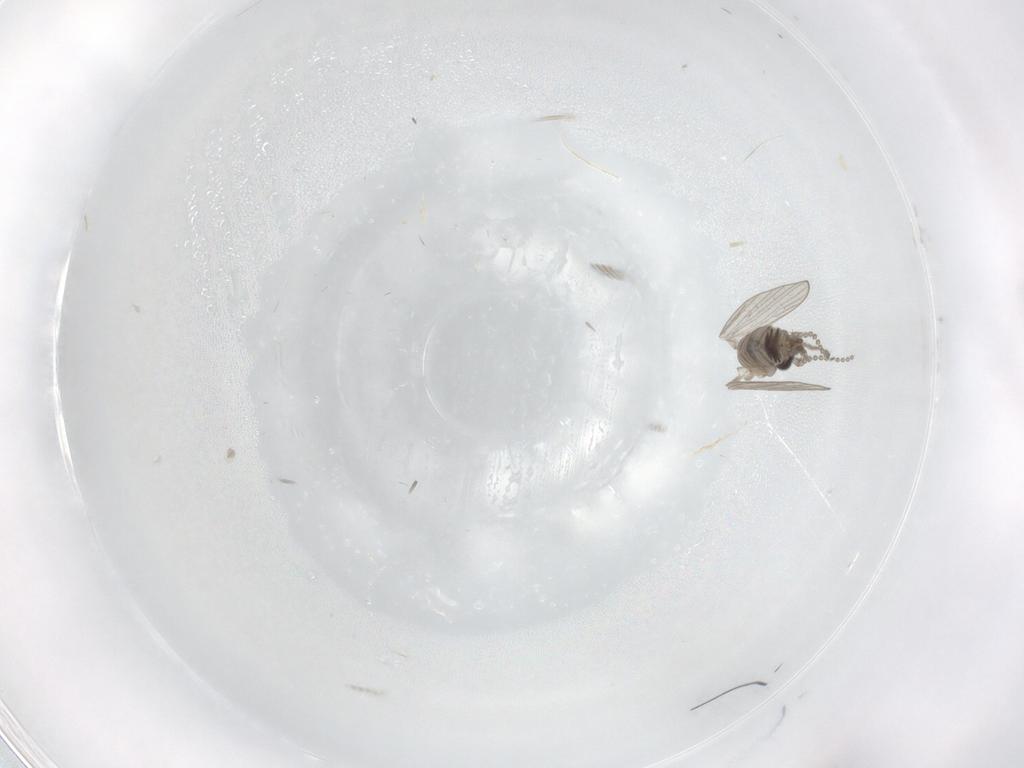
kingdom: Animalia
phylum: Arthropoda
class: Insecta
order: Diptera
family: Psychodidae
